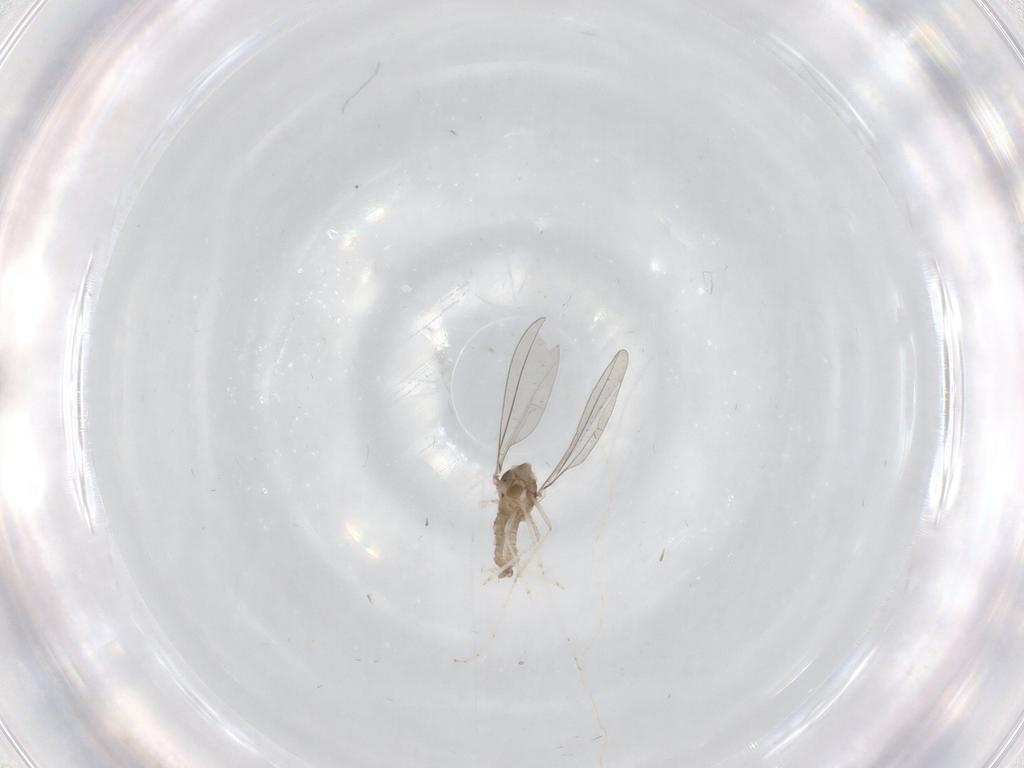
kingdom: Animalia
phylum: Arthropoda
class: Insecta
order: Diptera
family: Cecidomyiidae
